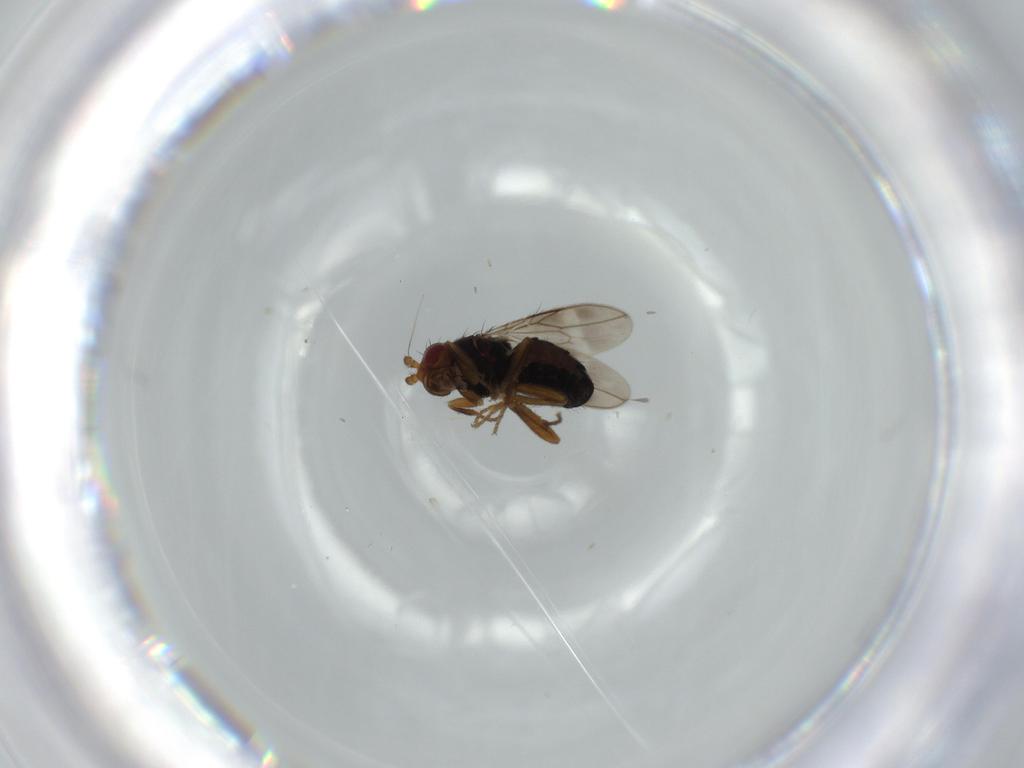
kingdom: Animalia
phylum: Arthropoda
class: Insecta
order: Diptera
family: Sphaeroceridae
